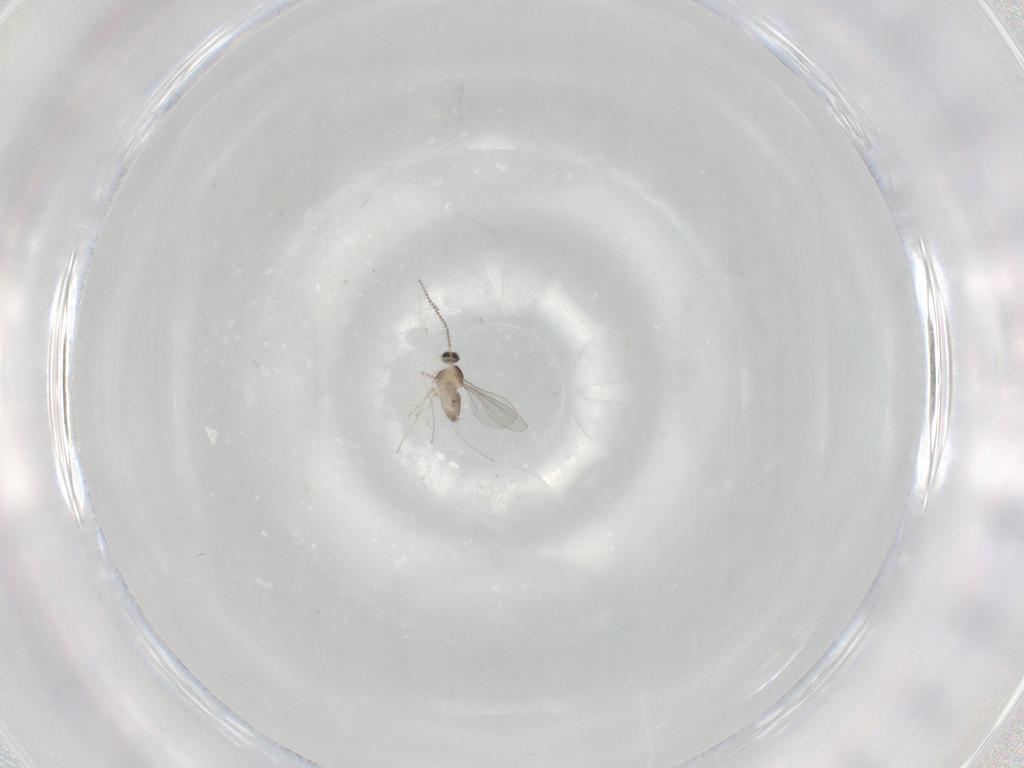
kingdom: Animalia
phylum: Arthropoda
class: Insecta
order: Diptera
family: Cecidomyiidae
